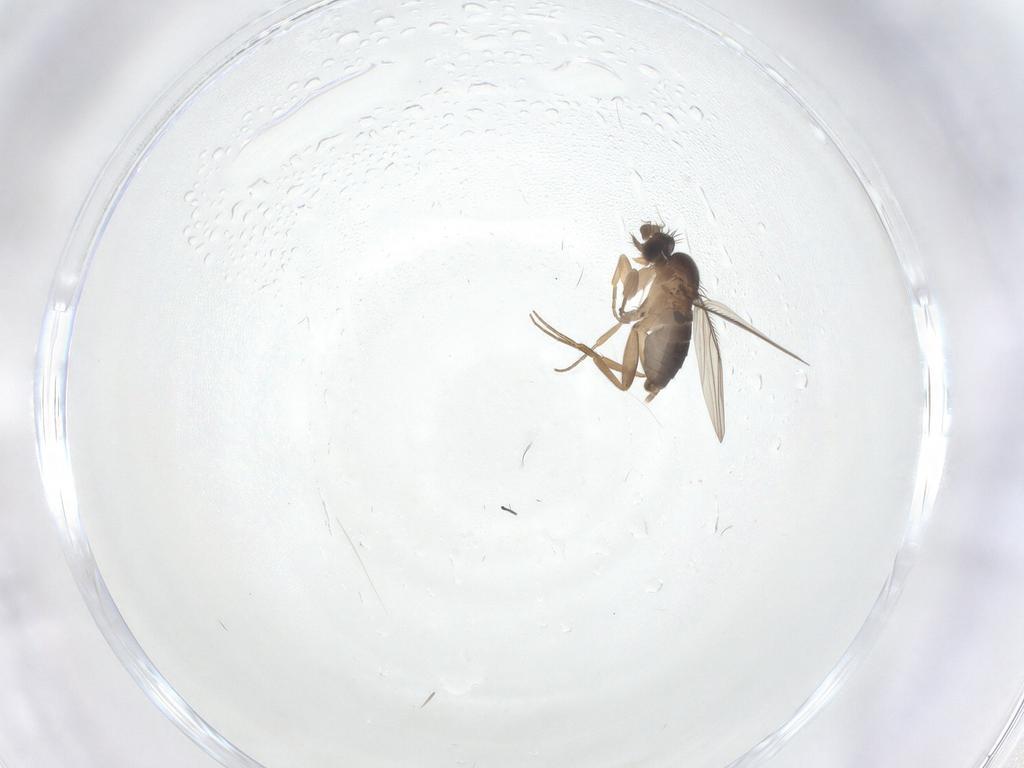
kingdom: Animalia
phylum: Arthropoda
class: Insecta
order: Diptera
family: Phoridae
